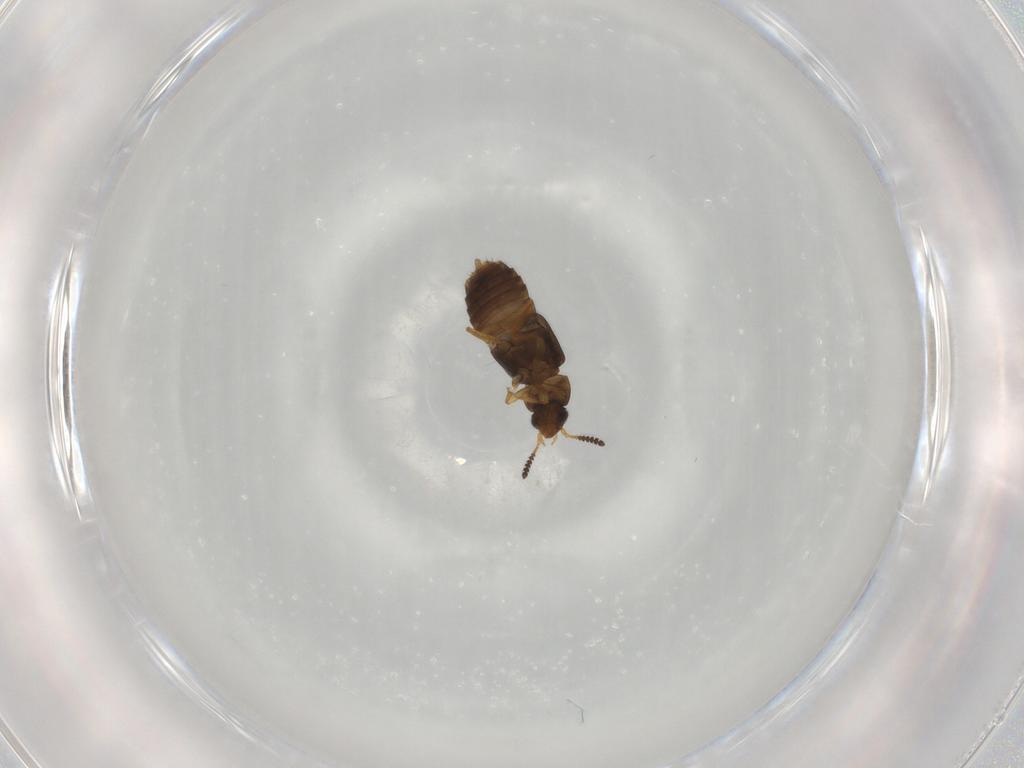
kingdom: Animalia
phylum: Arthropoda
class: Insecta
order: Coleoptera
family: Staphylinidae
